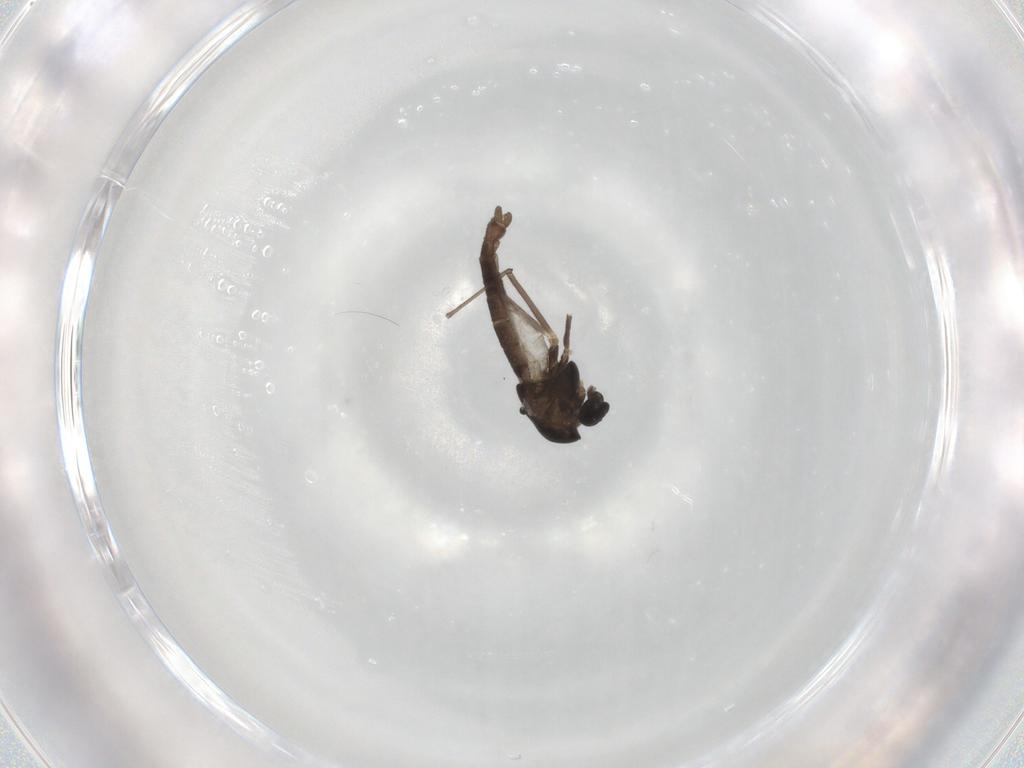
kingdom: Animalia
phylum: Arthropoda
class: Insecta
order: Diptera
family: Chironomidae
